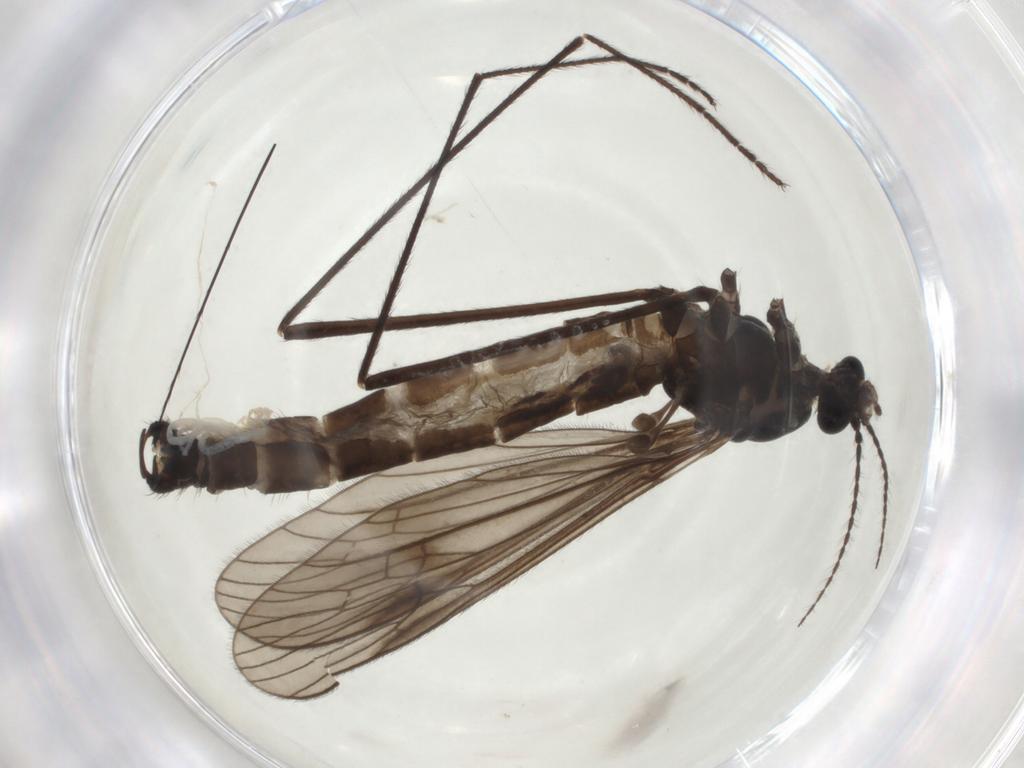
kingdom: Animalia
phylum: Arthropoda
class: Insecta
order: Diptera
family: Limoniidae
